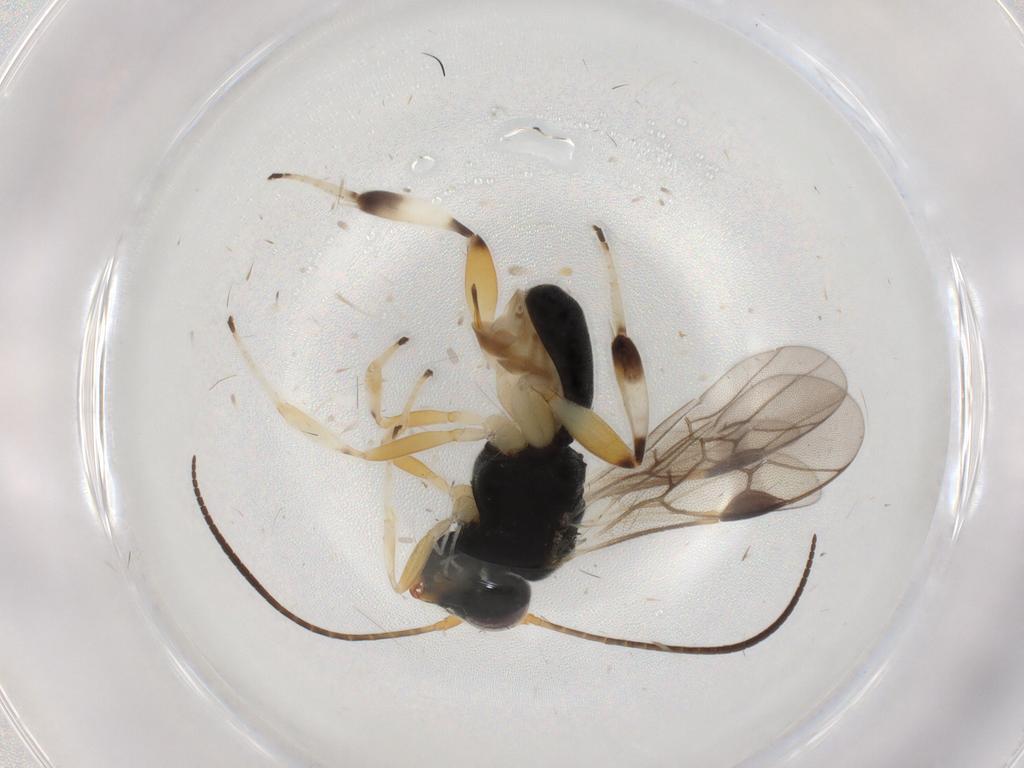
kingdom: Animalia
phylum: Arthropoda
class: Insecta
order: Hymenoptera
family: Braconidae
